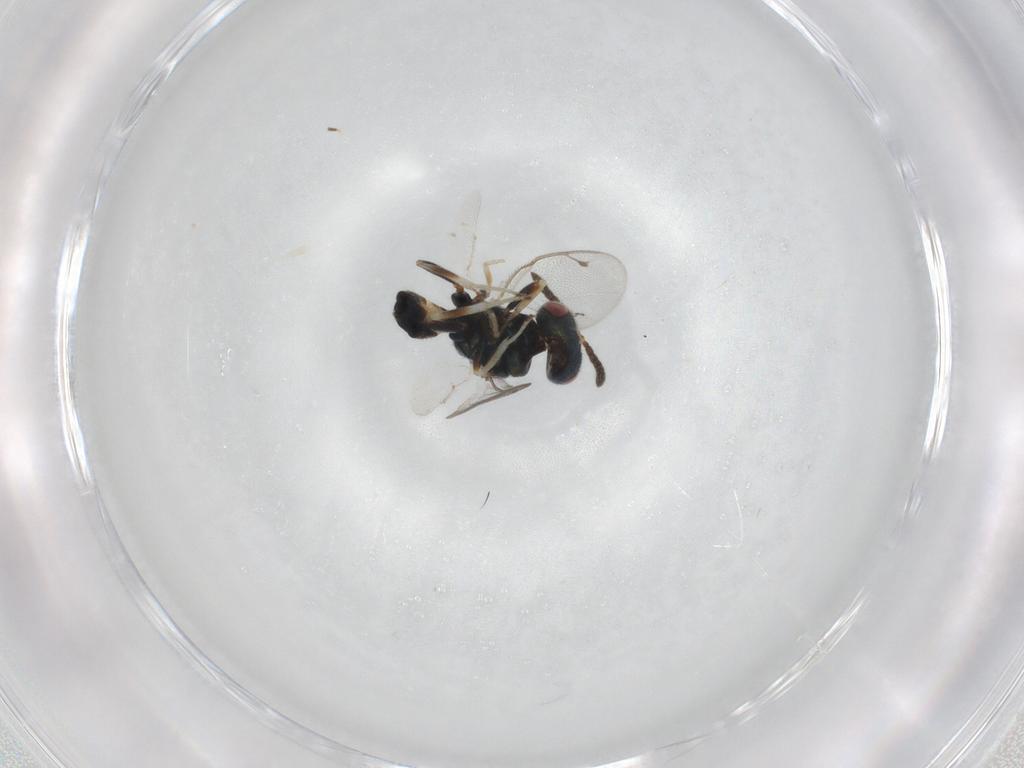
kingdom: Animalia
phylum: Arthropoda
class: Insecta
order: Hymenoptera
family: Pteromalidae
